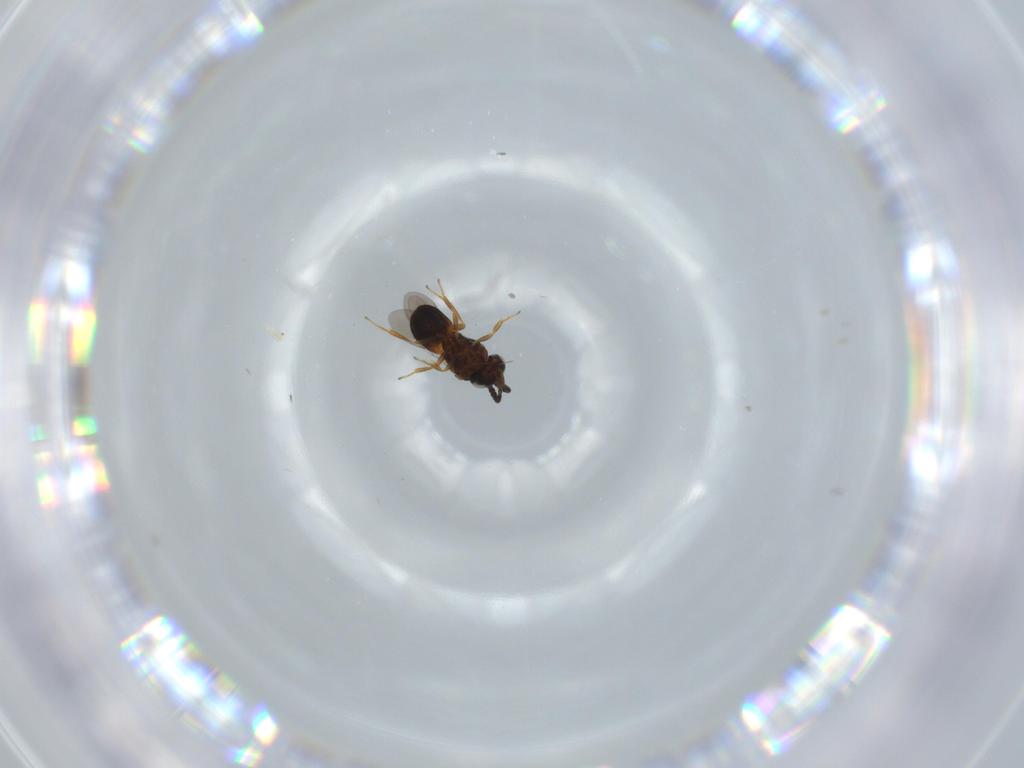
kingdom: Animalia
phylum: Arthropoda
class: Insecta
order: Hymenoptera
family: Scelionidae
